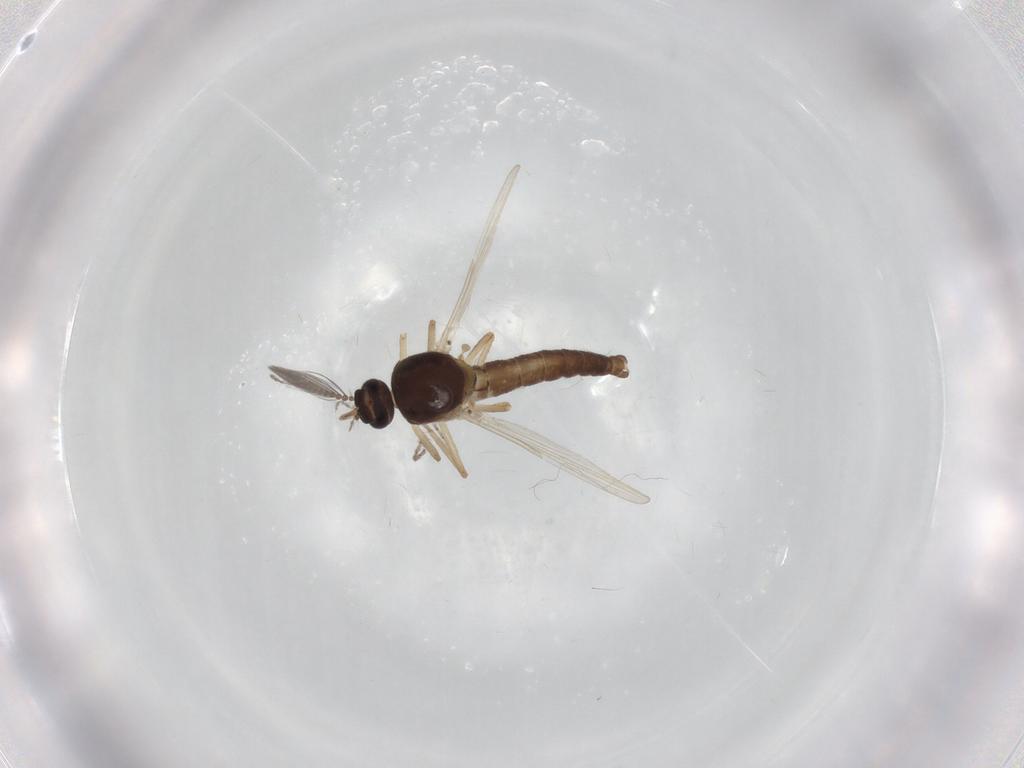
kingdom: Animalia
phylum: Arthropoda
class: Insecta
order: Diptera
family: Ceratopogonidae
